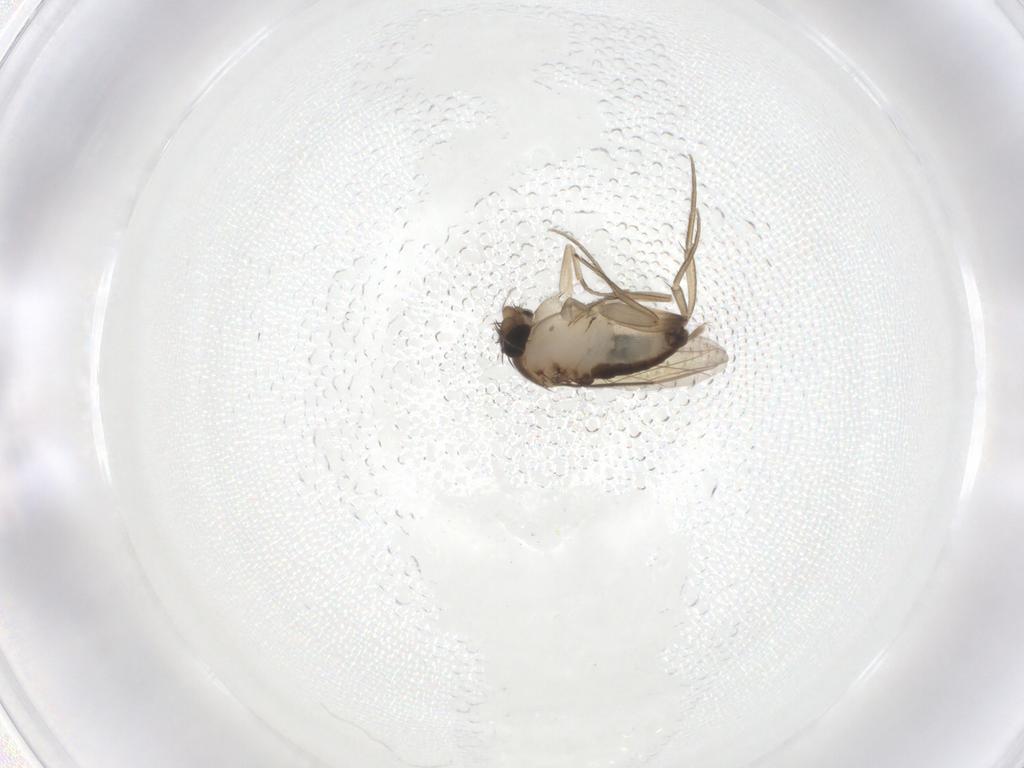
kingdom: Animalia
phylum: Arthropoda
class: Insecta
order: Diptera
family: Phoridae
